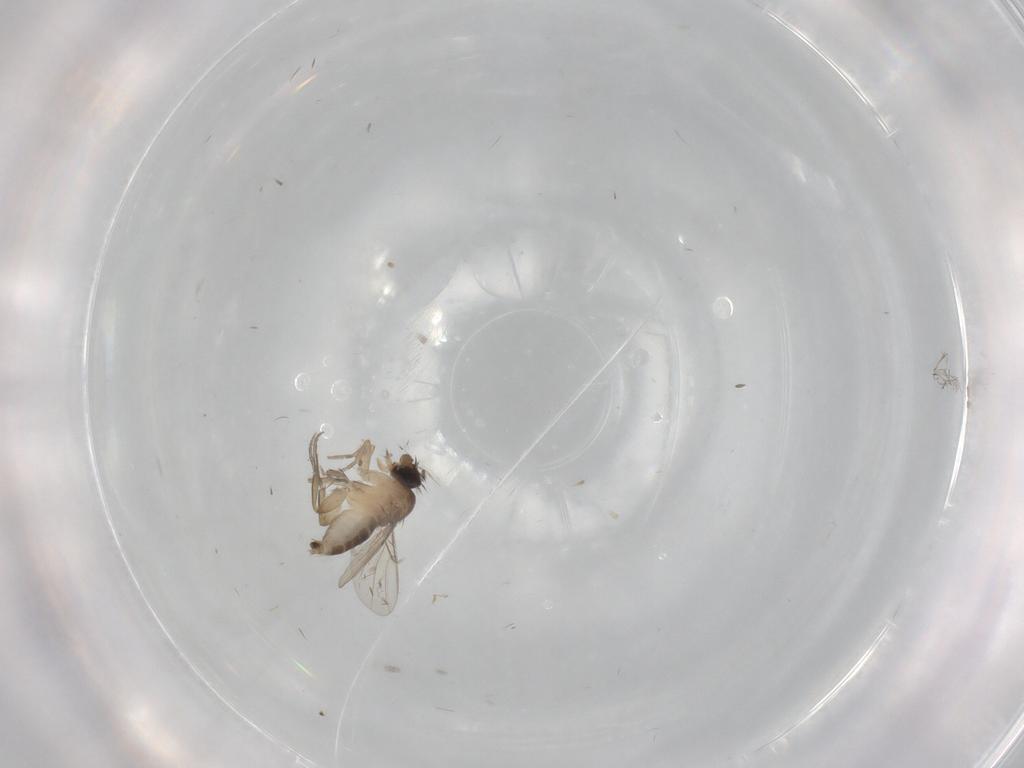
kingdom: Animalia
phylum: Arthropoda
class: Insecta
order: Diptera
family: Phoridae
